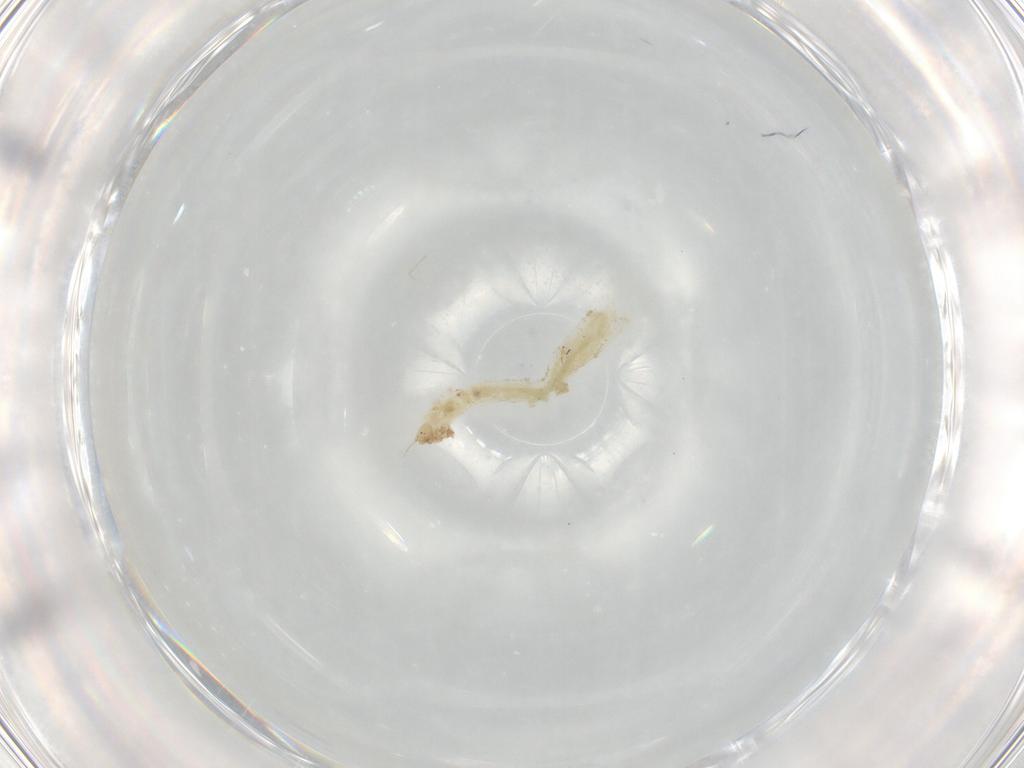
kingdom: Animalia
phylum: Arthropoda
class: Insecta
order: Diptera
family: Chironomidae
